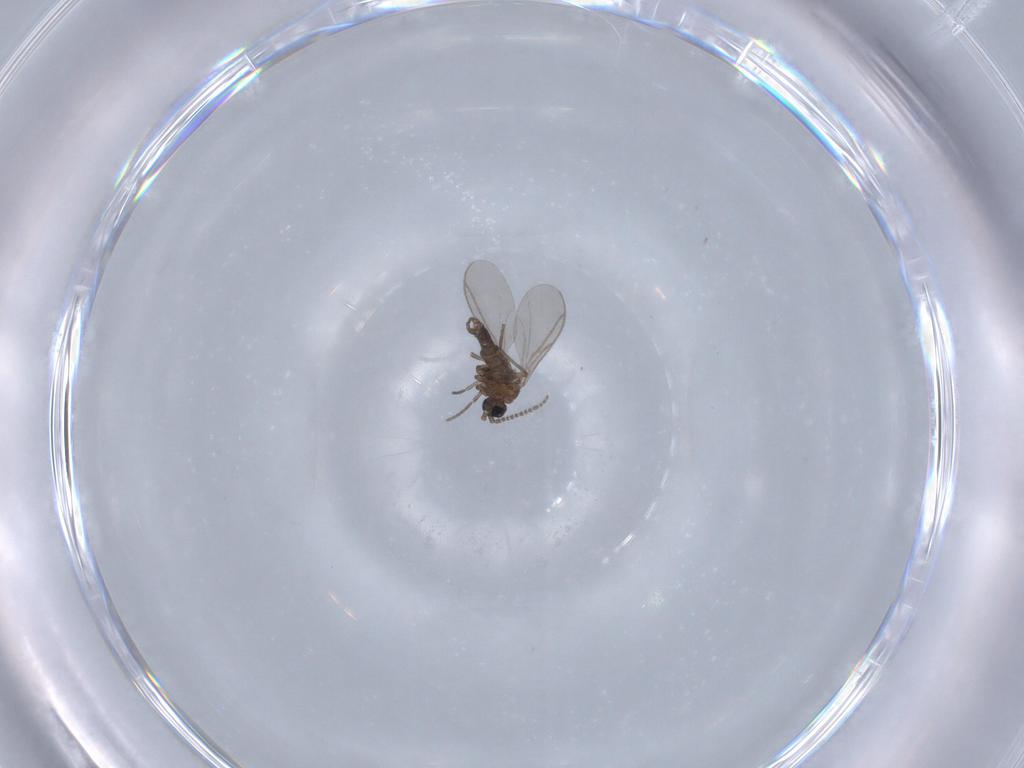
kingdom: Animalia
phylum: Arthropoda
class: Insecta
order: Diptera
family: Sciaridae
